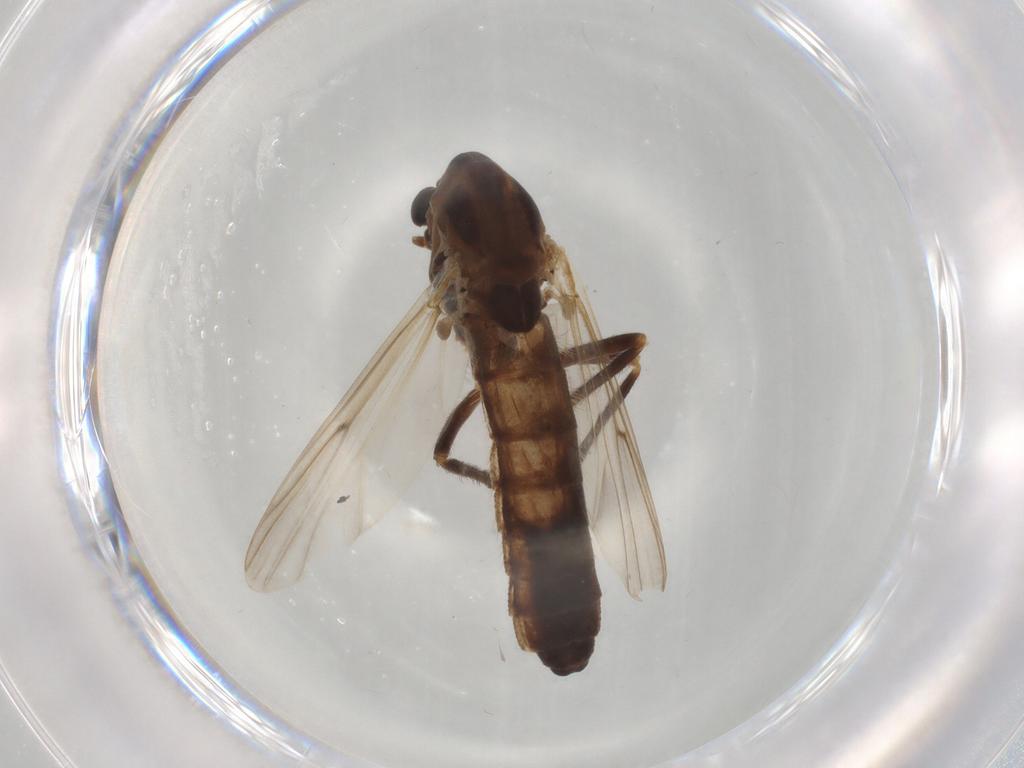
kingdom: Animalia
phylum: Arthropoda
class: Insecta
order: Diptera
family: Chironomidae
